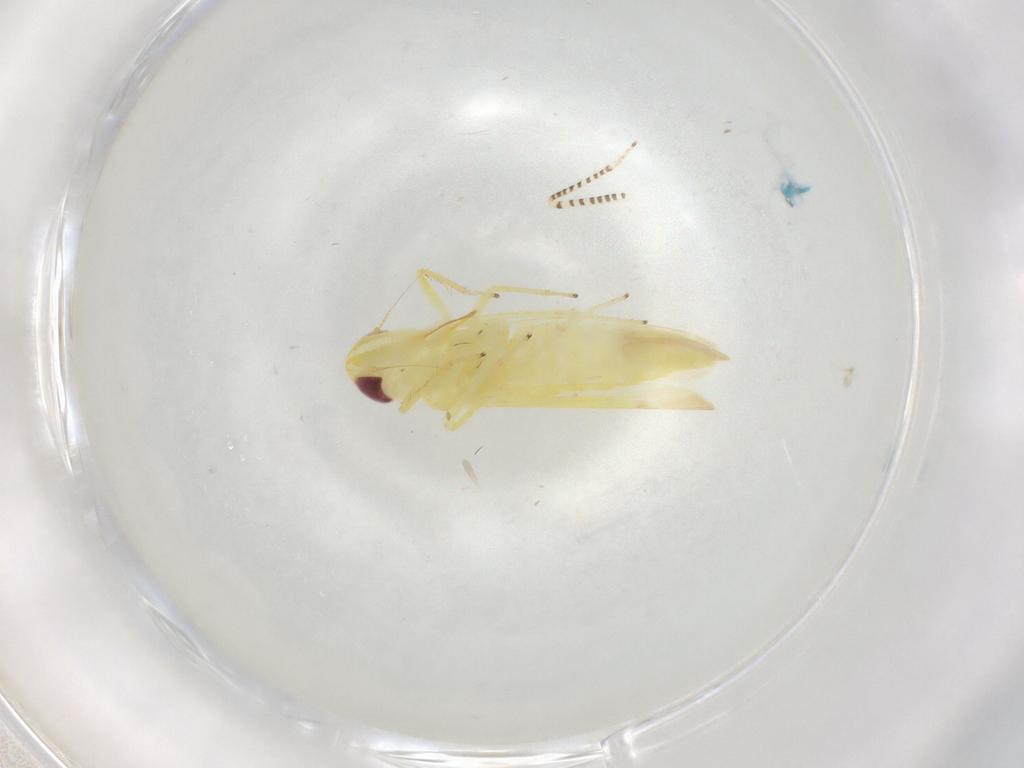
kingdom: Animalia
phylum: Arthropoda
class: Insecta
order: Hemiptera
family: Cicadellidae
